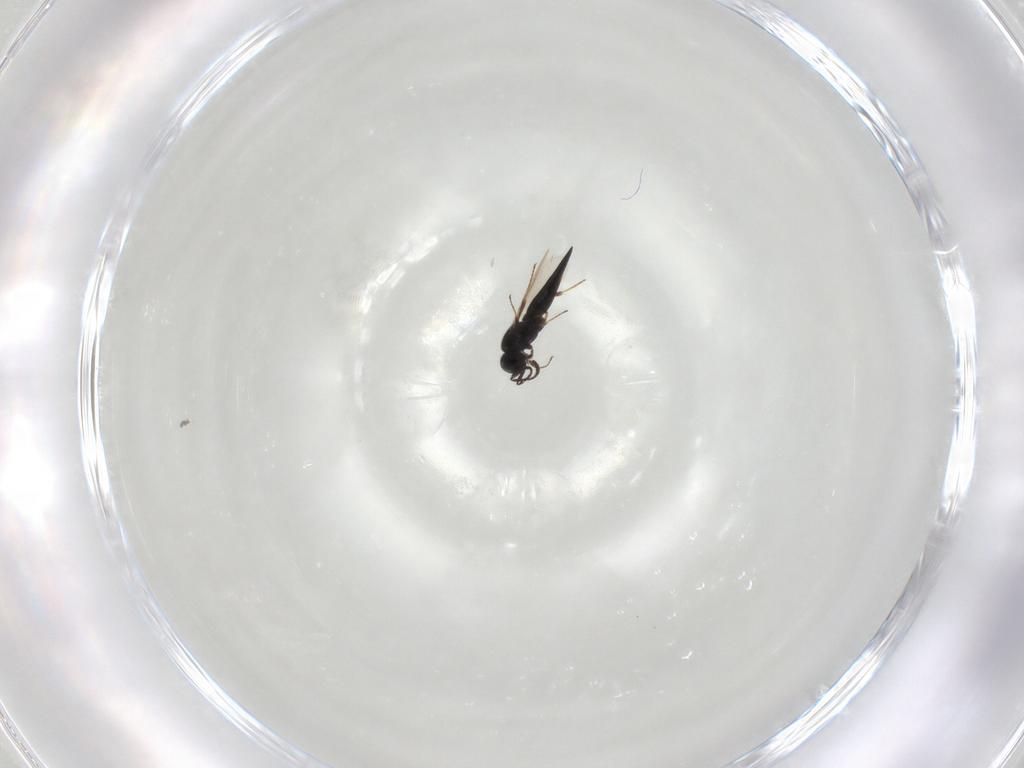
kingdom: Animalia
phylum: Arthropoda
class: Insecta
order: Hymenoptera
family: Scelionidae
